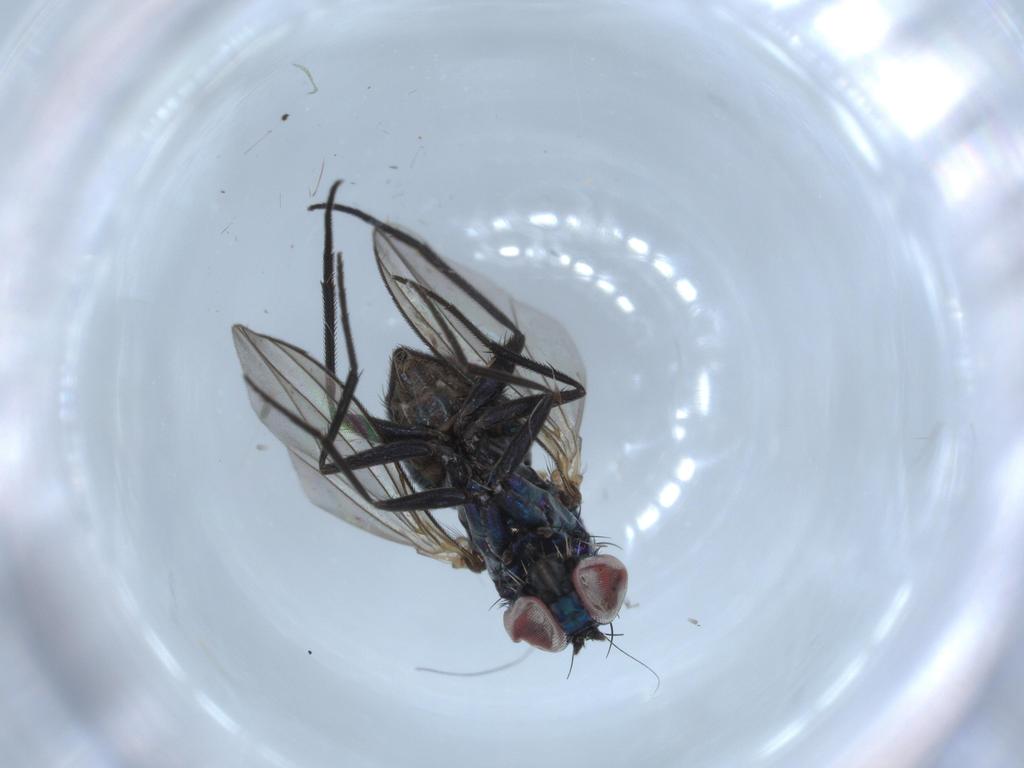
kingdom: Animalia
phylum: Arthropoda
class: Insecta
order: Diptera
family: Dolichopodidae
